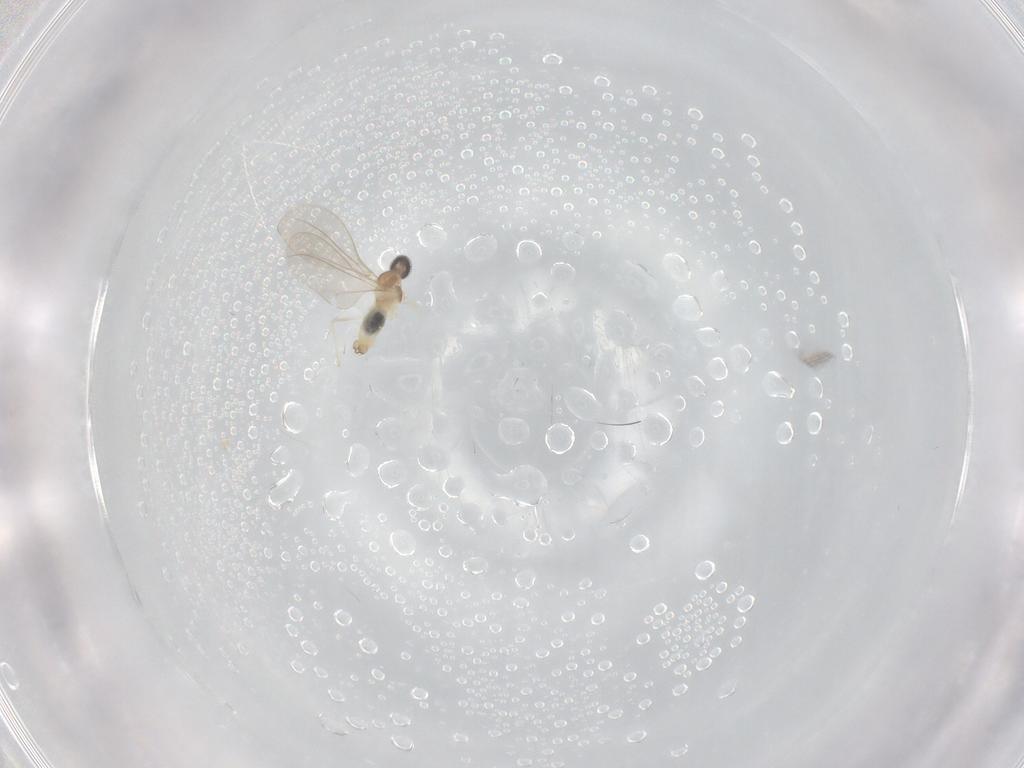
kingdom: Animalia
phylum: Arthropoda
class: Insecta
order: Diptera
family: Cecidomyiidae
